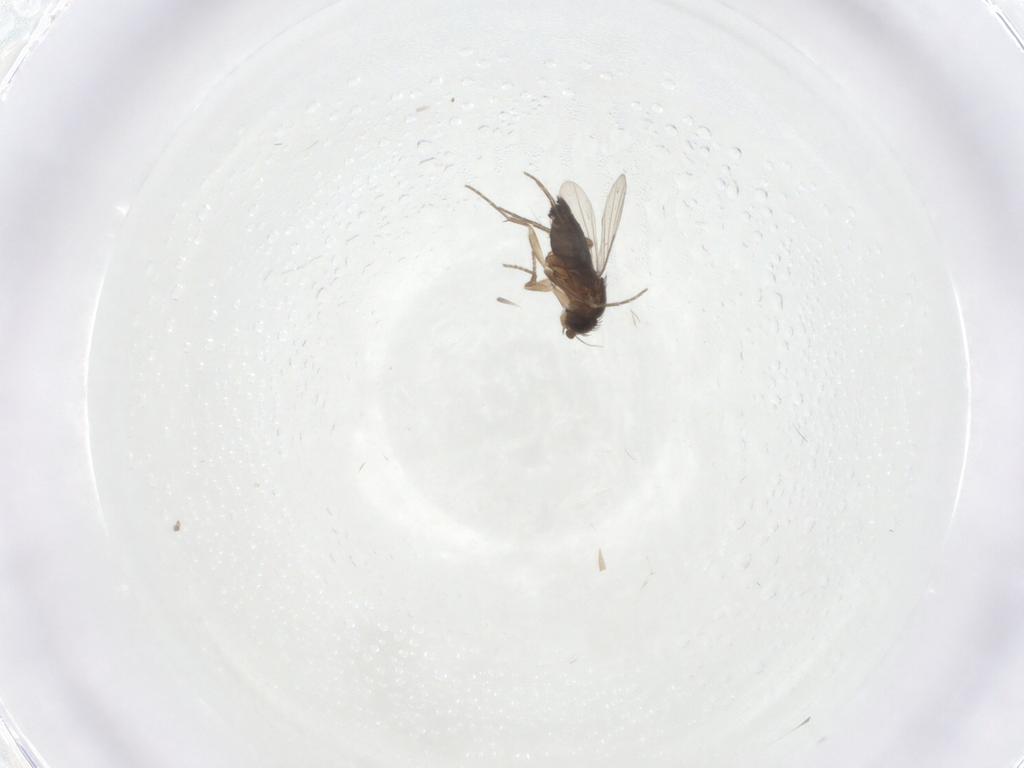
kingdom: Animalia
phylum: Arthropoda
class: Insecta
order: Diptera
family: Phoridae
